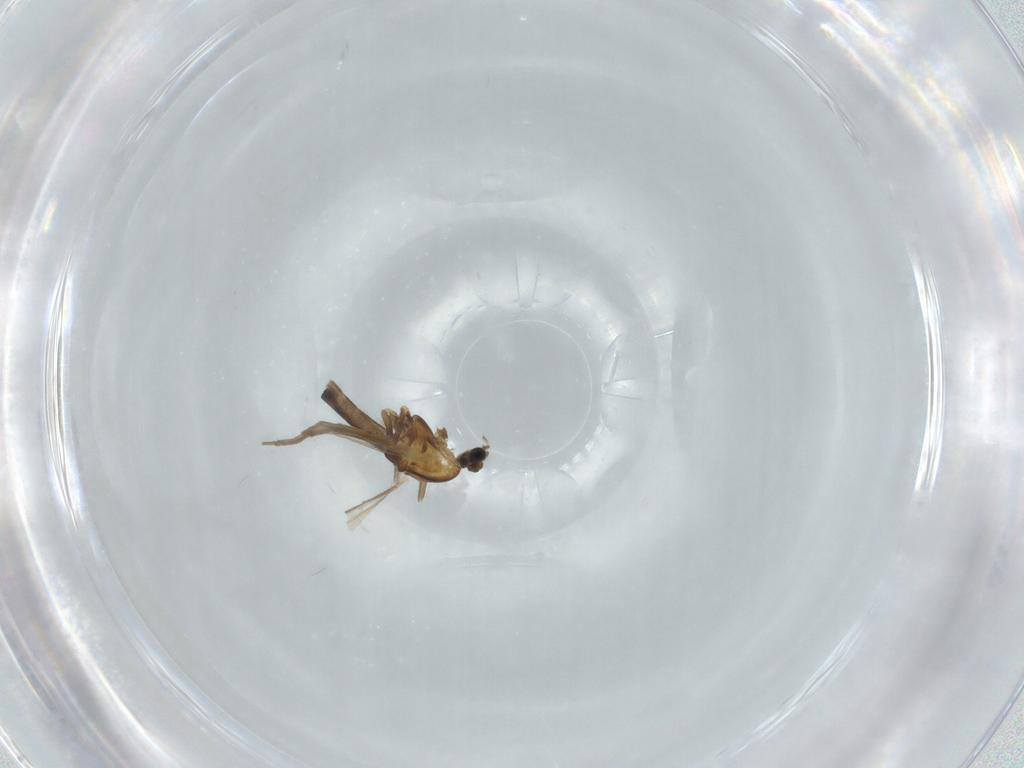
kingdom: Animalia
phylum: Arthropoda
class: Insecta
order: Diptera
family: Chironomidae
